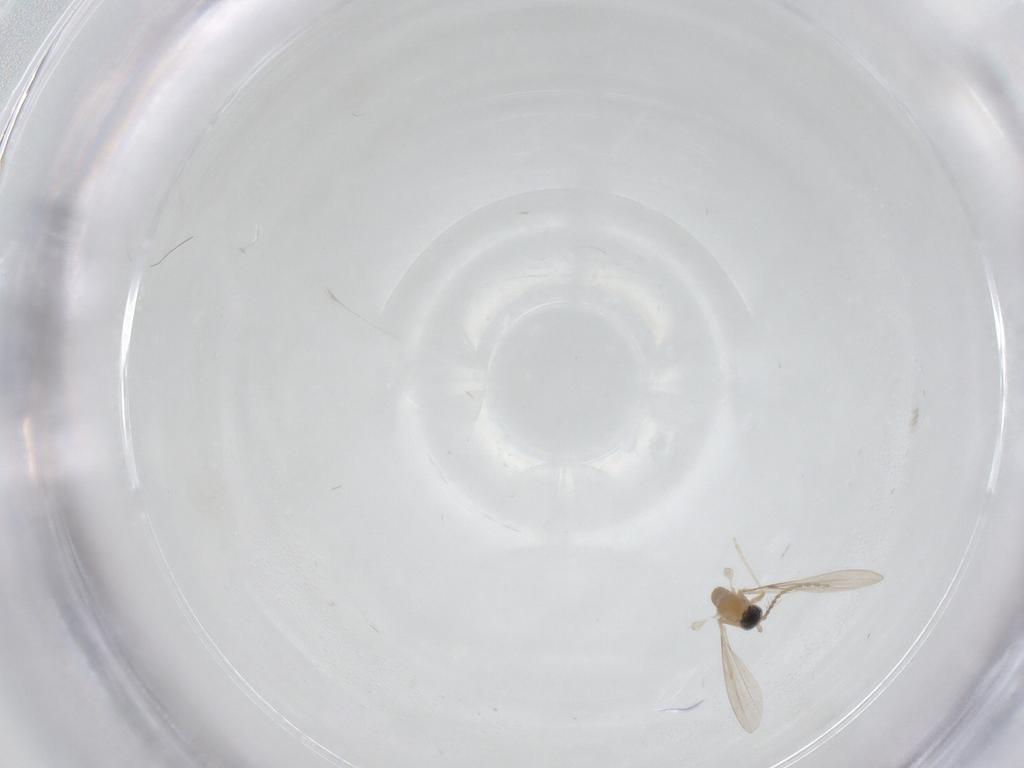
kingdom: Animalia
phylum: Arthropoda
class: Insecta
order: Diptera
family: Cecidomyiidae
